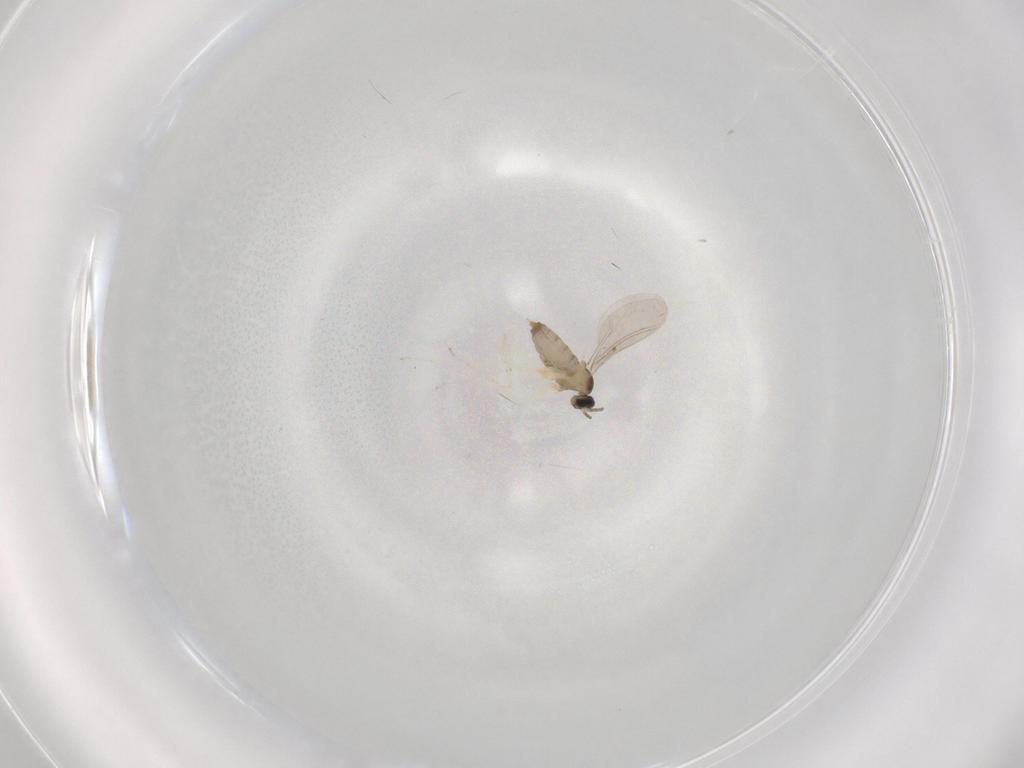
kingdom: Animalia
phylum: Arthropoda
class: Insecta
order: Diptera
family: Cecidomyiidae
